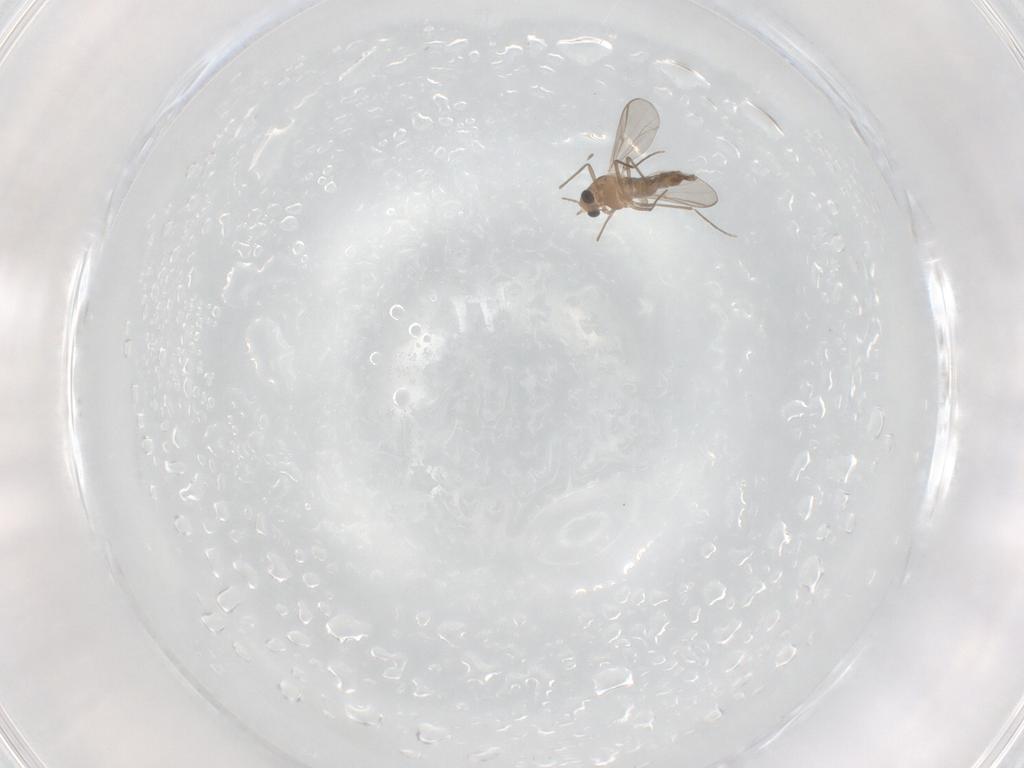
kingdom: Animalia
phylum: Arthropoda
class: Insecta
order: Diptera
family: Chironomidae
